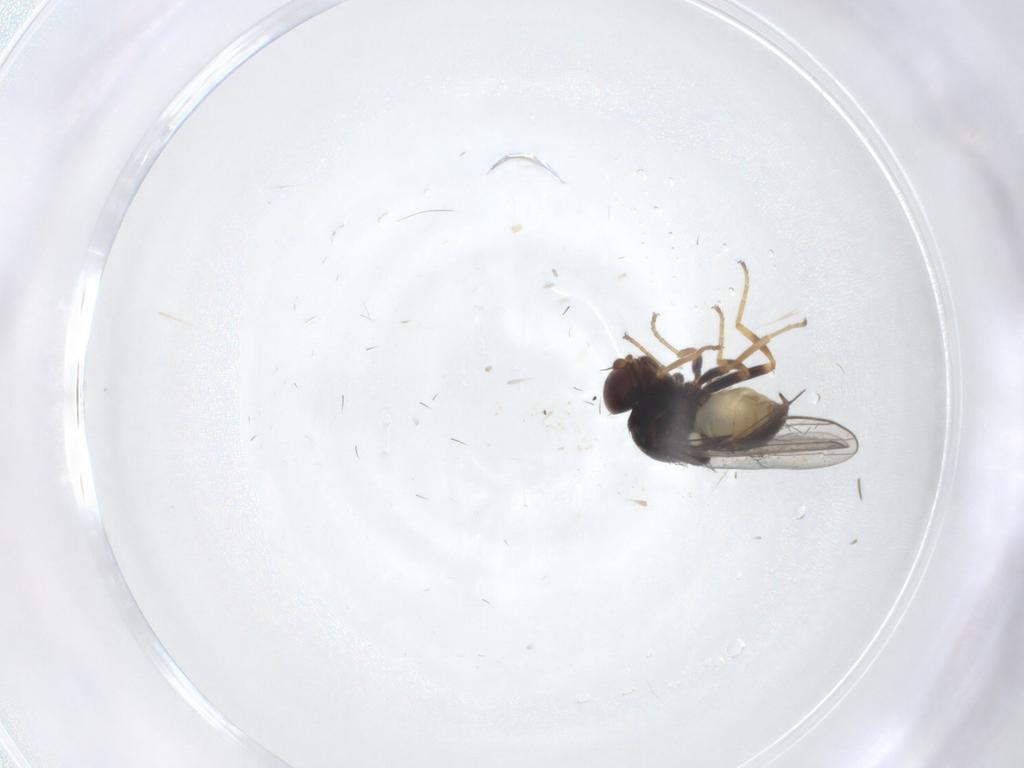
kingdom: Animalia
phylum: Arthropoda
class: Insecta
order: Diptera
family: Chloropidae
